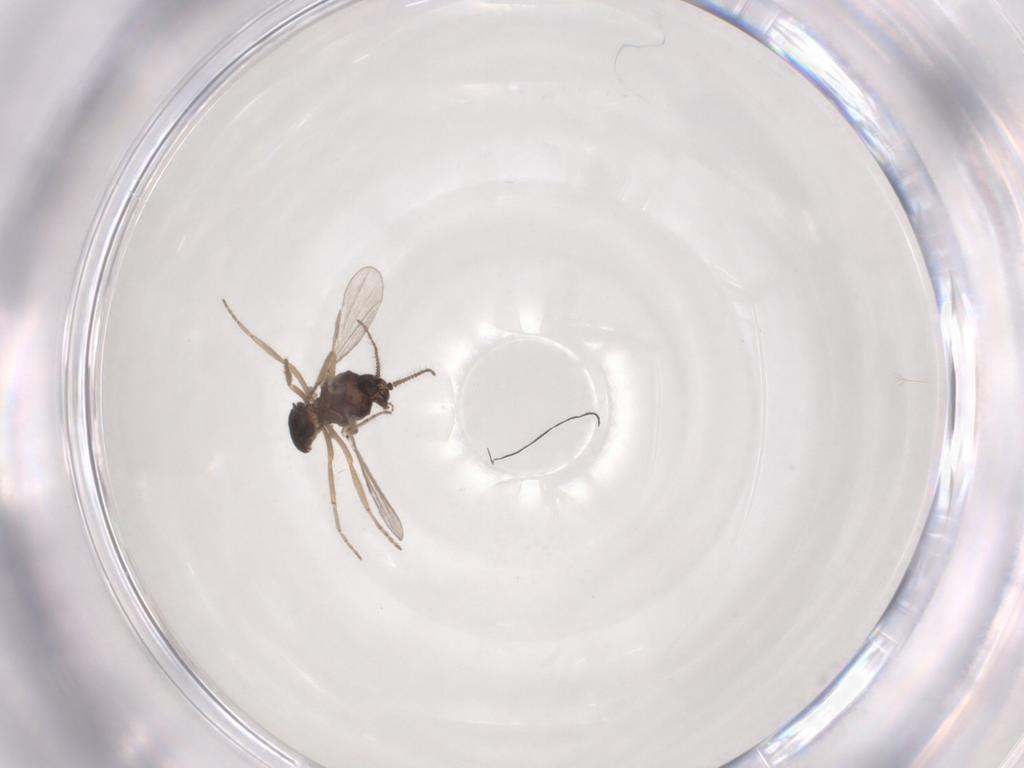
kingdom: Animalia
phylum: Arthropoda
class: Insecta
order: Diptera
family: Ceratopogonidae
